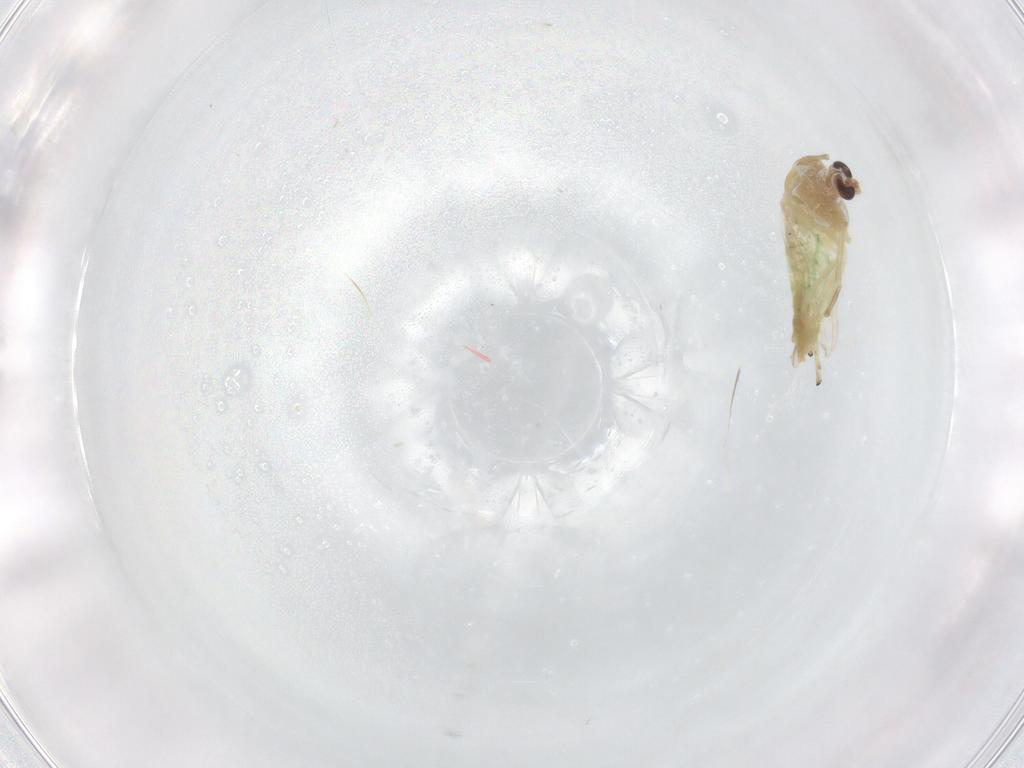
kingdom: Animalia
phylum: Arthropoda
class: Insecta
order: Diptera
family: Chironomidae
